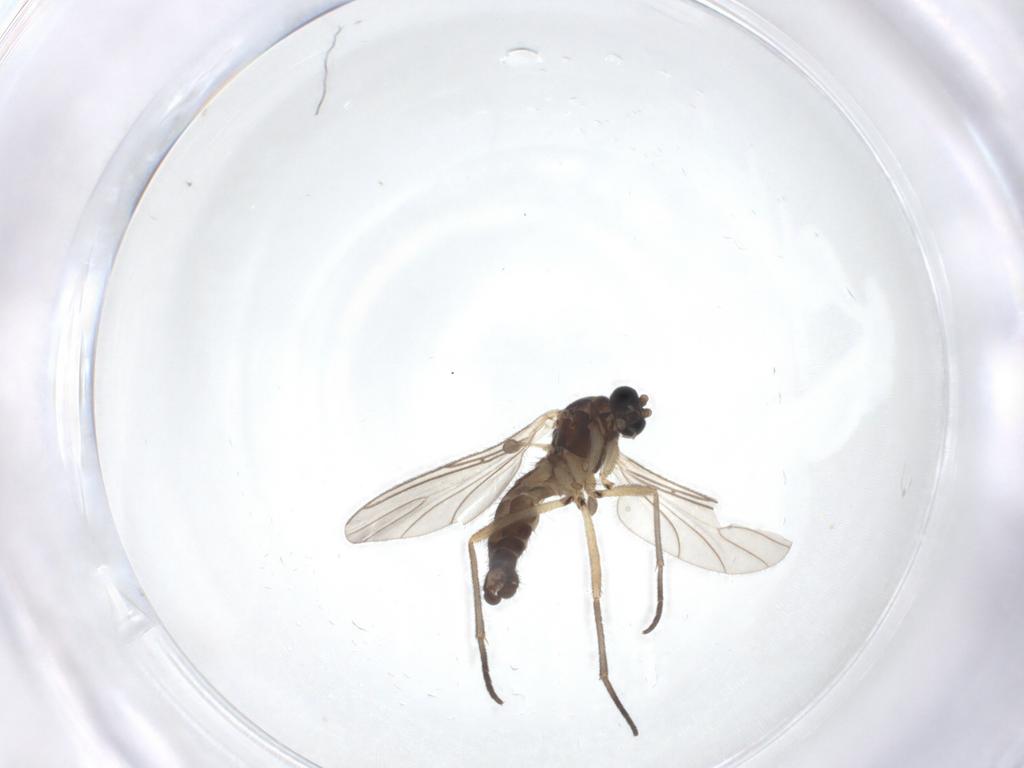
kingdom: Animalia
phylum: Arthropoda
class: Insecta
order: Diptera
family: Sciaridae
